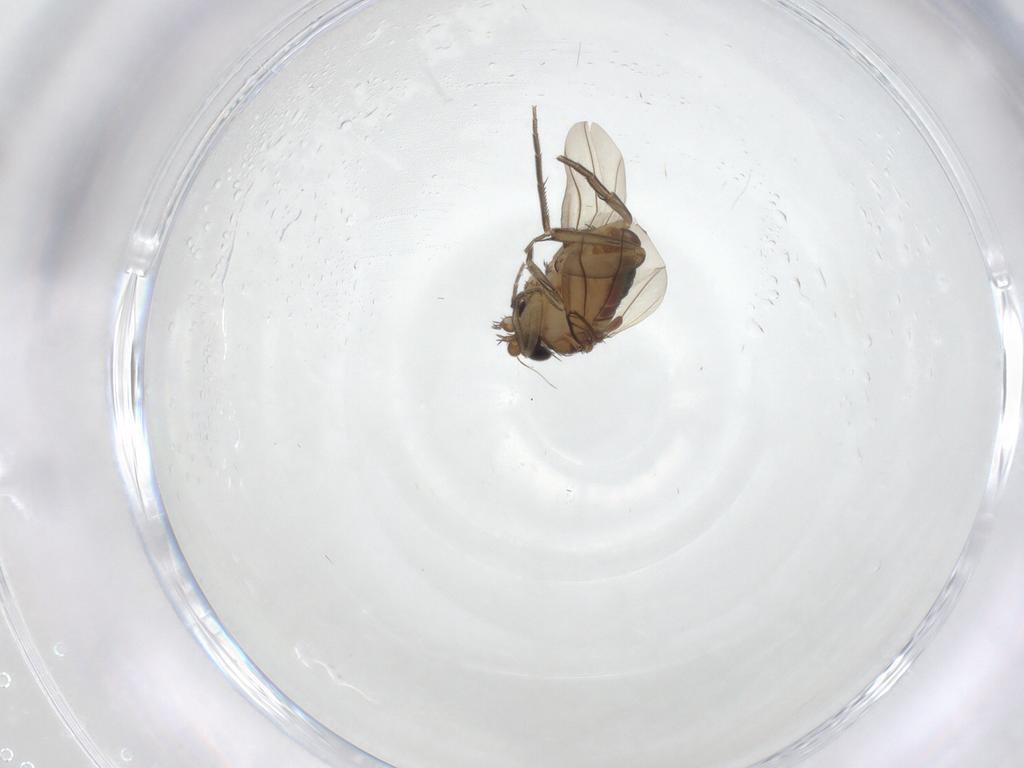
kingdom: Animalia
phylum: Arthropoda
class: Insecta
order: Diptera
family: Phoridae
